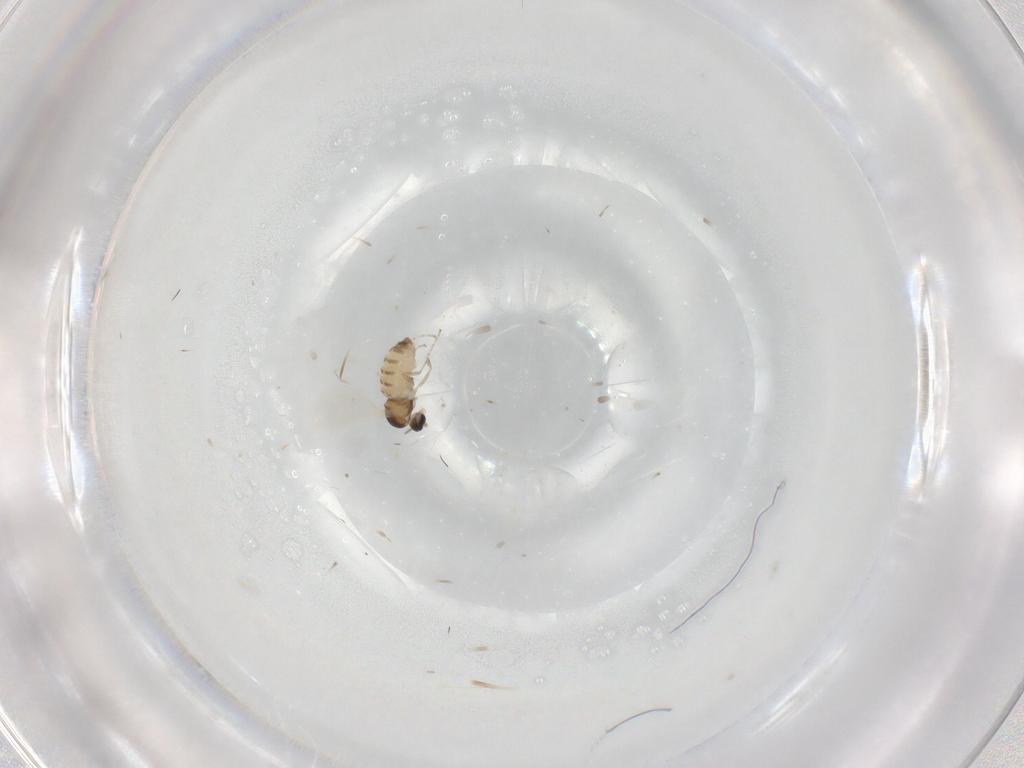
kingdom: Animalia
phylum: Arthropoda
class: Insecta
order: Diptera
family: Cecidomyiidae
